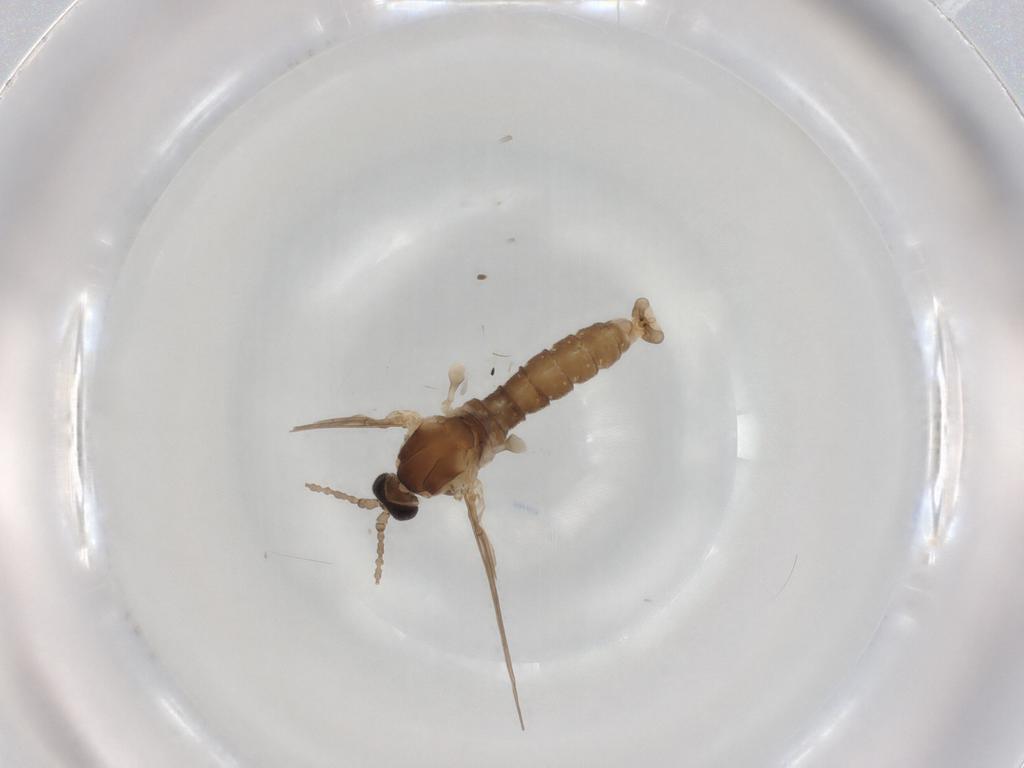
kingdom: Animalia
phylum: Arthropoda
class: Insecta
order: Diptera
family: Cecidomyiidae
